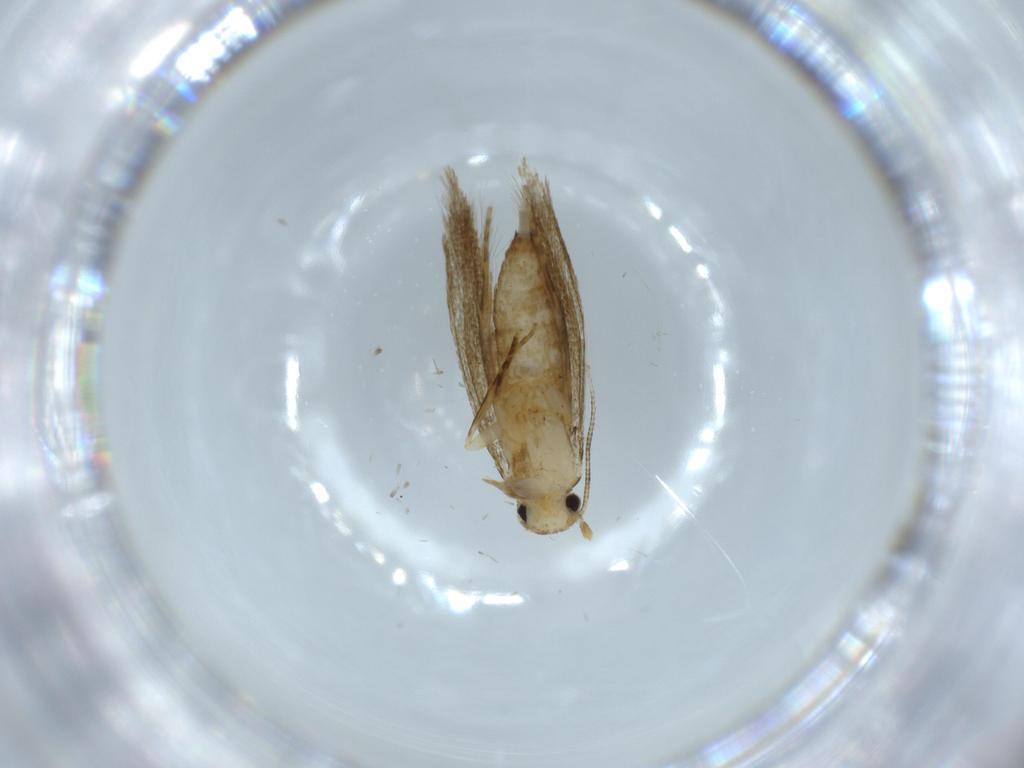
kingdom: Animalia
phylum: Arthropoda
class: Insecta
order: Lepidoptera
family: Tineidae
